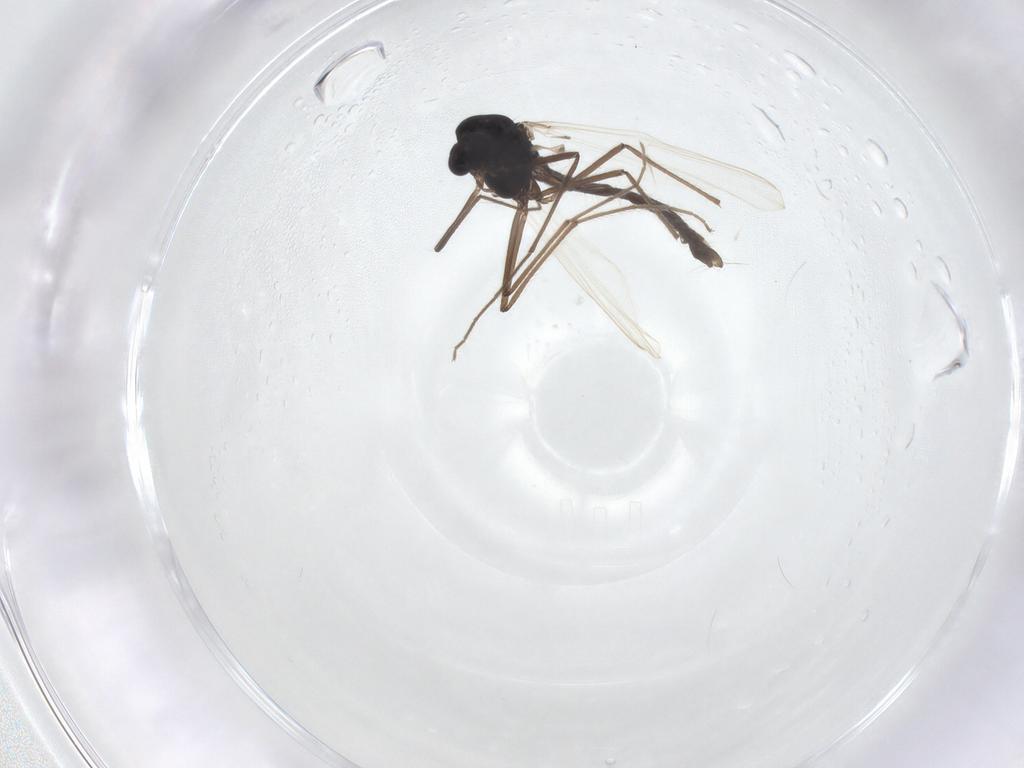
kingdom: Animalia
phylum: Arthropoda
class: Insecta
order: Diptera
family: Chironomidae
